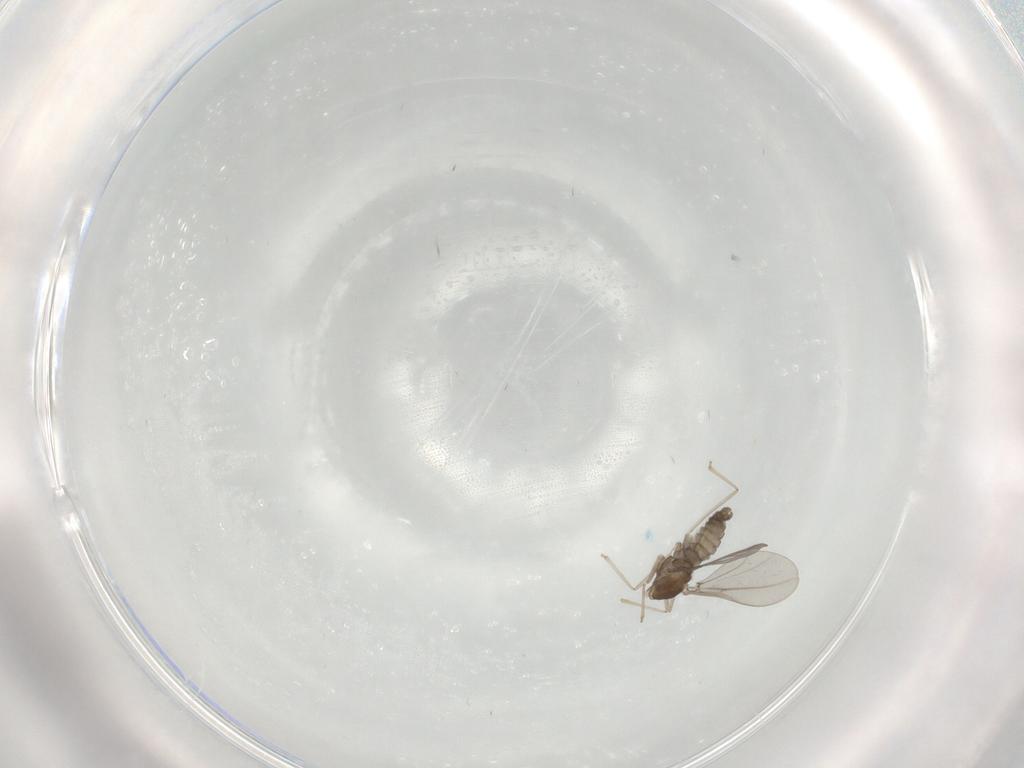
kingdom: Animalia
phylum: Arthropoda
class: Insecta
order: Diptera
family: Cecidomyiidae
